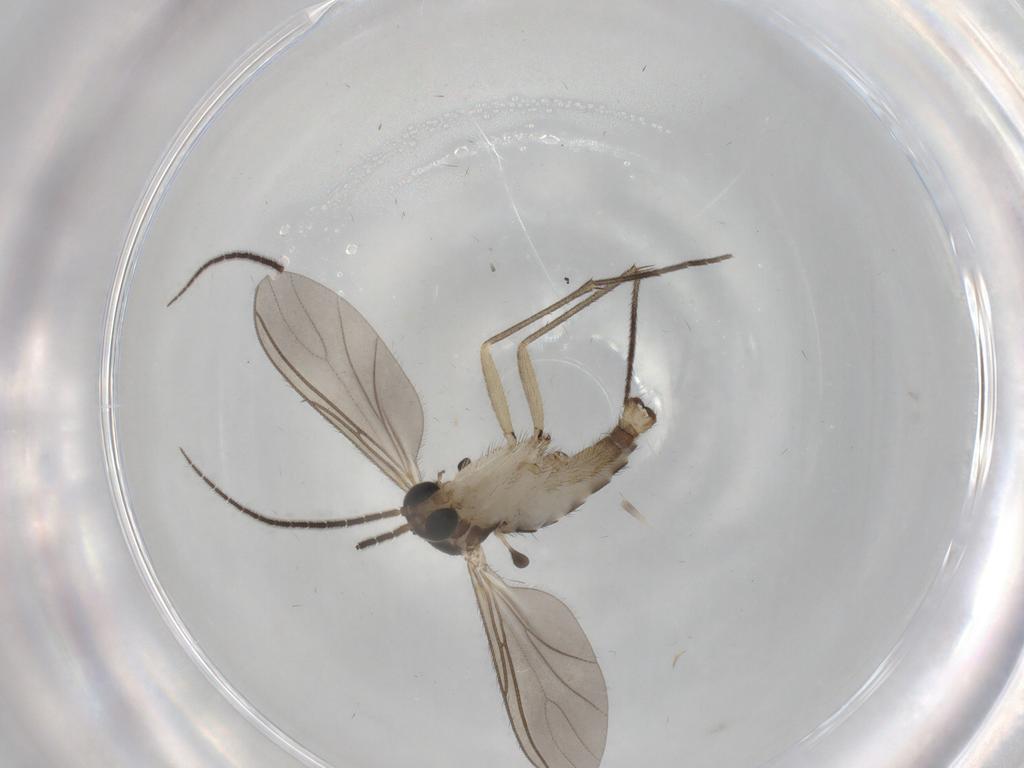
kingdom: Animalia
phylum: Arthropoda
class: Insecta
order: Diptera
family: Sciaridae
